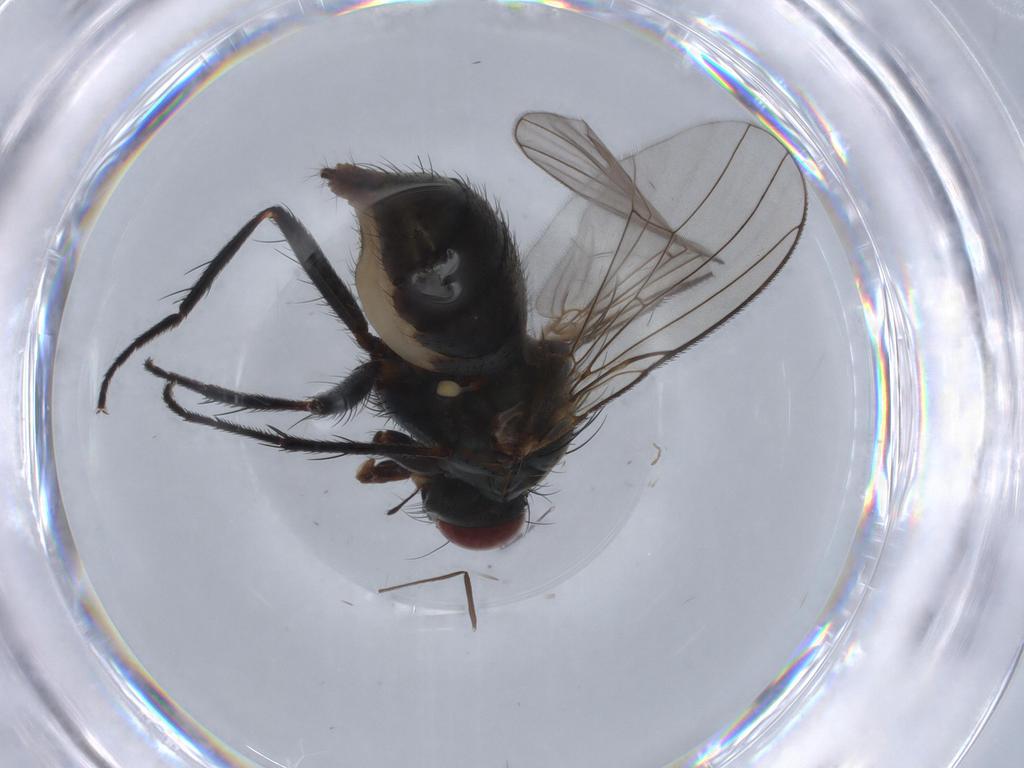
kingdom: Animalia
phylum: Arthropoda
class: Insecta
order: Diptera
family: Muscidae
